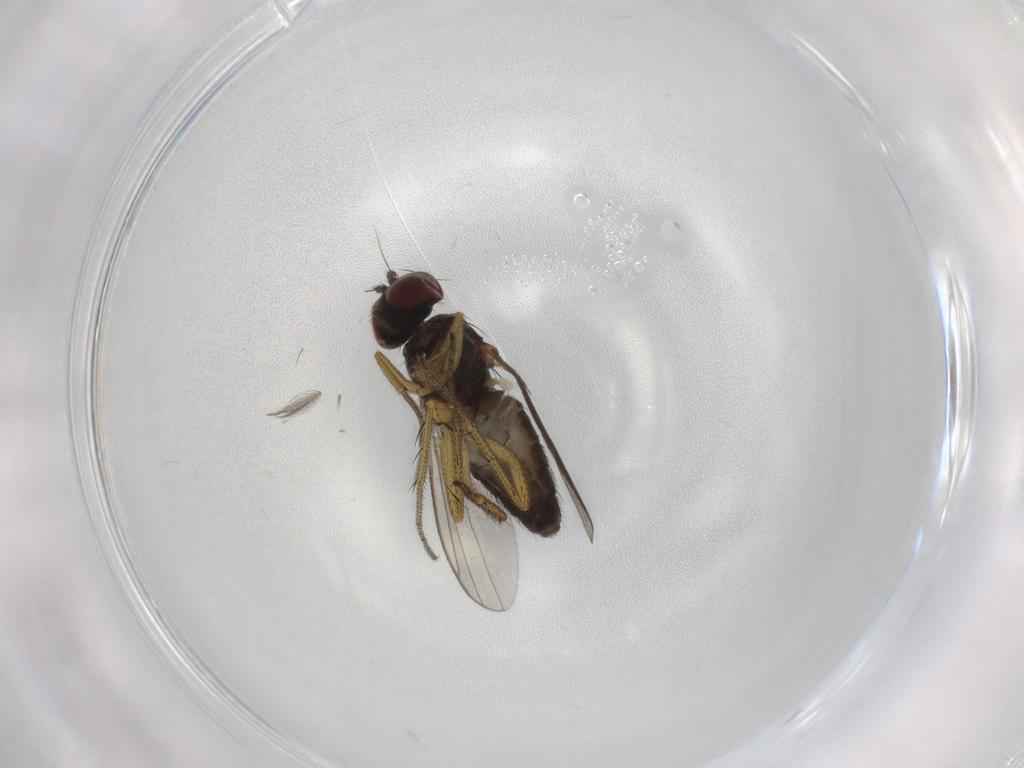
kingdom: Animalia
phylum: Arthropoda
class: Insecta
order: Diptera
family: Dolichopodidae
